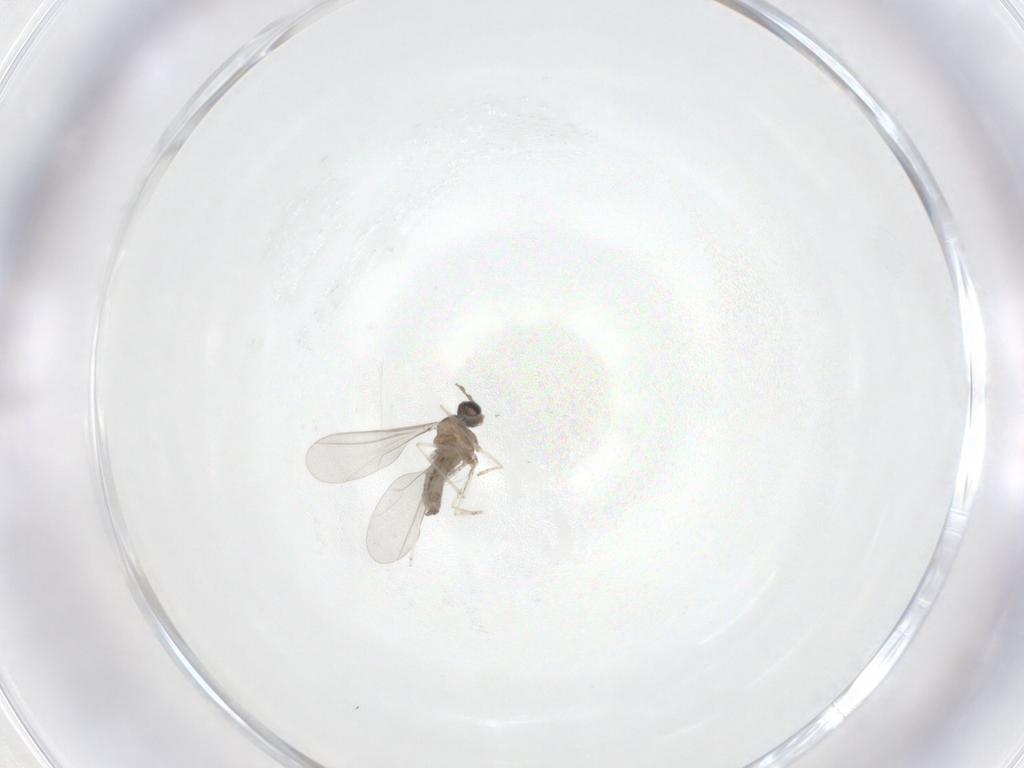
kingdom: Animalia
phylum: Arthropoda
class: Insecta
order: Diptera
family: Cecidomyiidae
